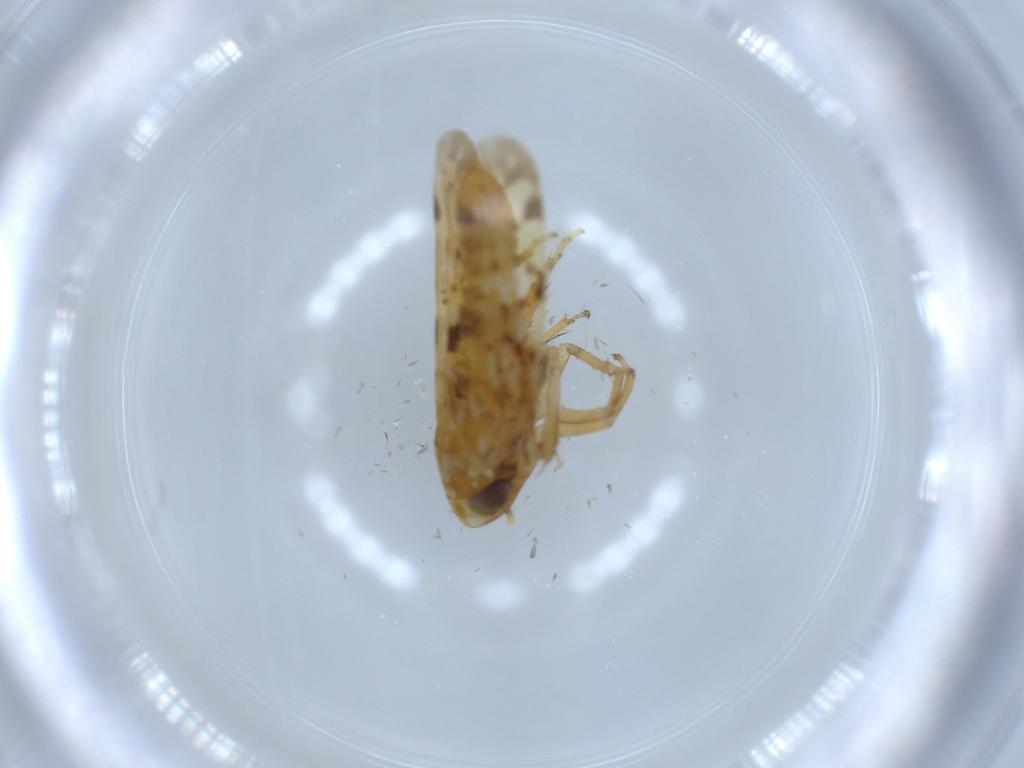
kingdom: Animalia
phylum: Arthropoda
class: Insecta
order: Hemiptera
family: Cicadellidae
